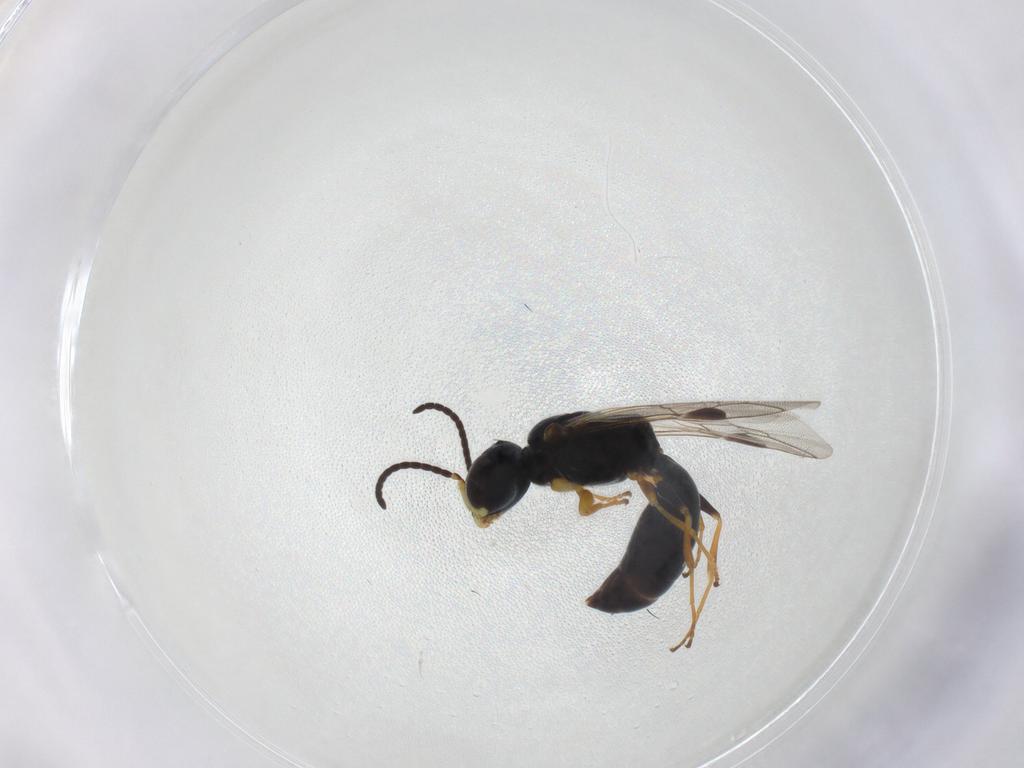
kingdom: Animalia
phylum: Arthropoda
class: Insecta
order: Hymenoptera
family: Pemphredonidae
